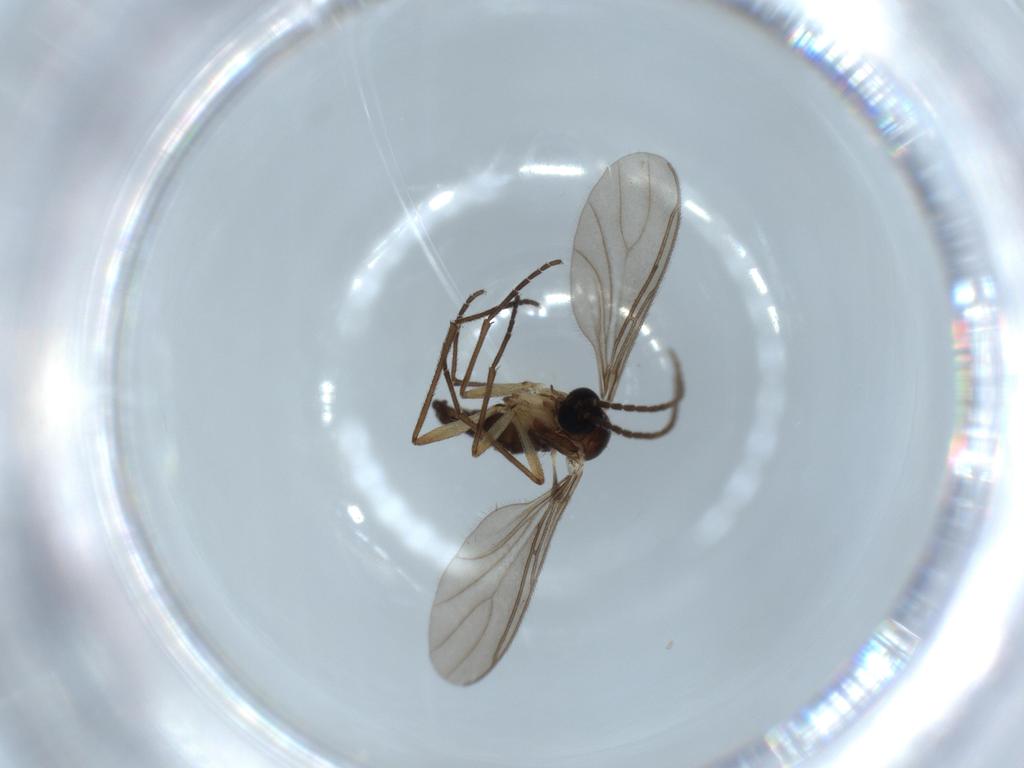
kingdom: Animalia
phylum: Arthropoda
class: Insecta
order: Diptera
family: Sciaridae
